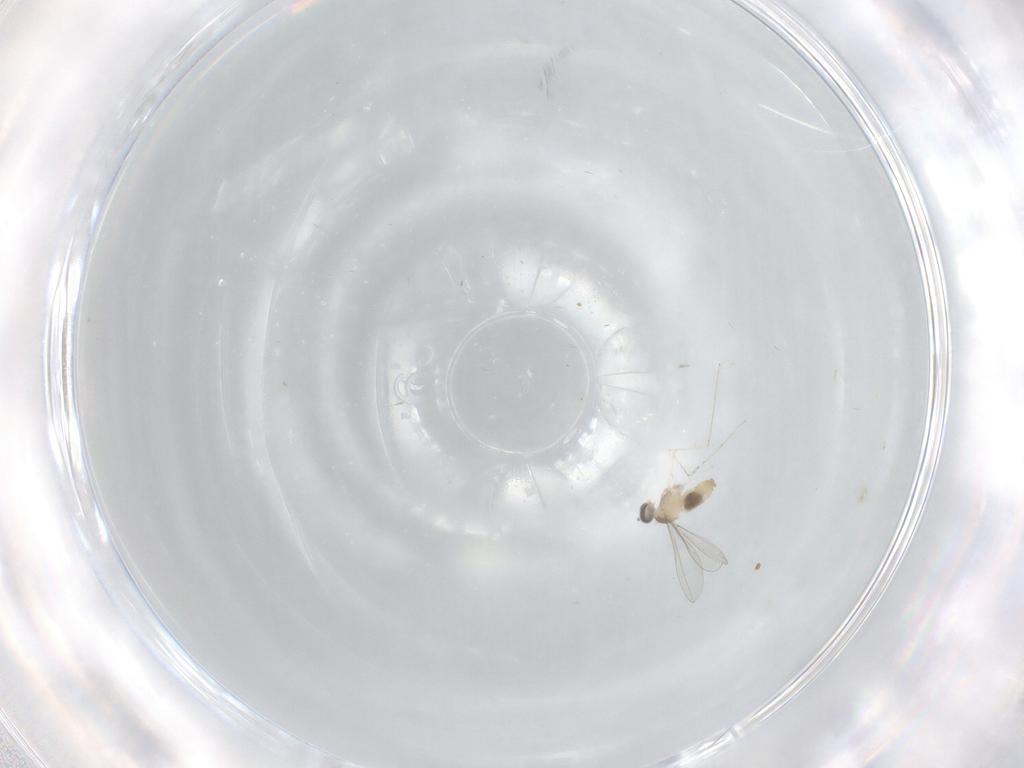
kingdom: Animalia
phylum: Arthropoda
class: Insecta
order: Diptera
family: Cecidomyiidae
